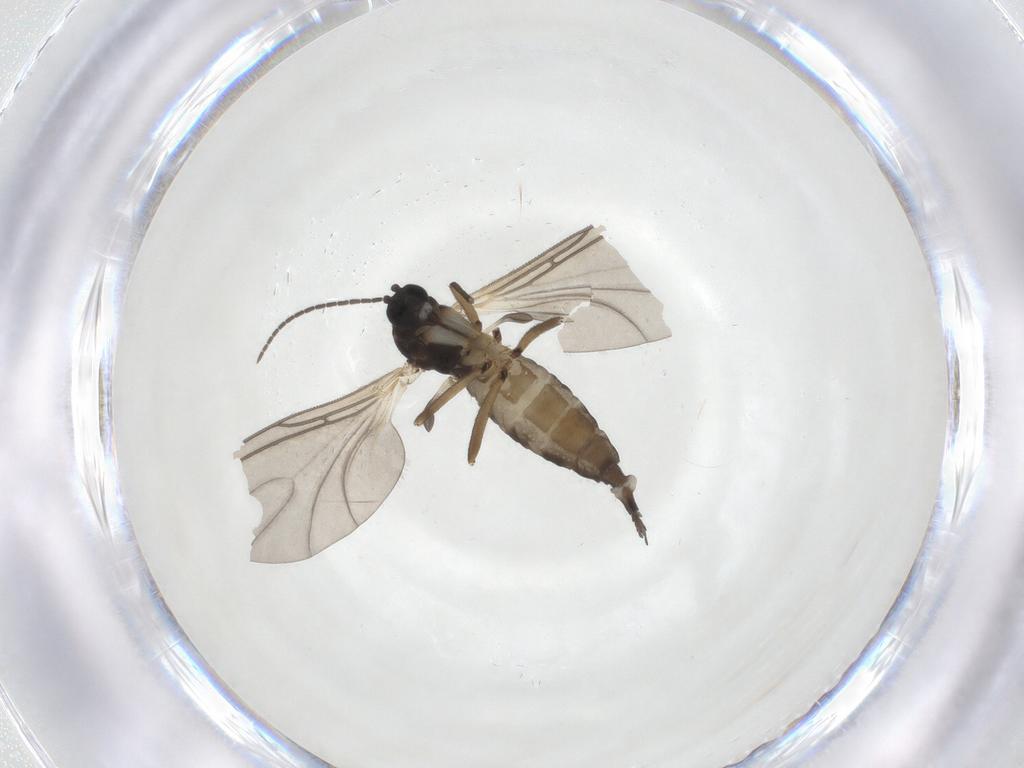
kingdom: Animalia
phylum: Arthropoda
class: Insecta
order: Diptera
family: Sciaridae
